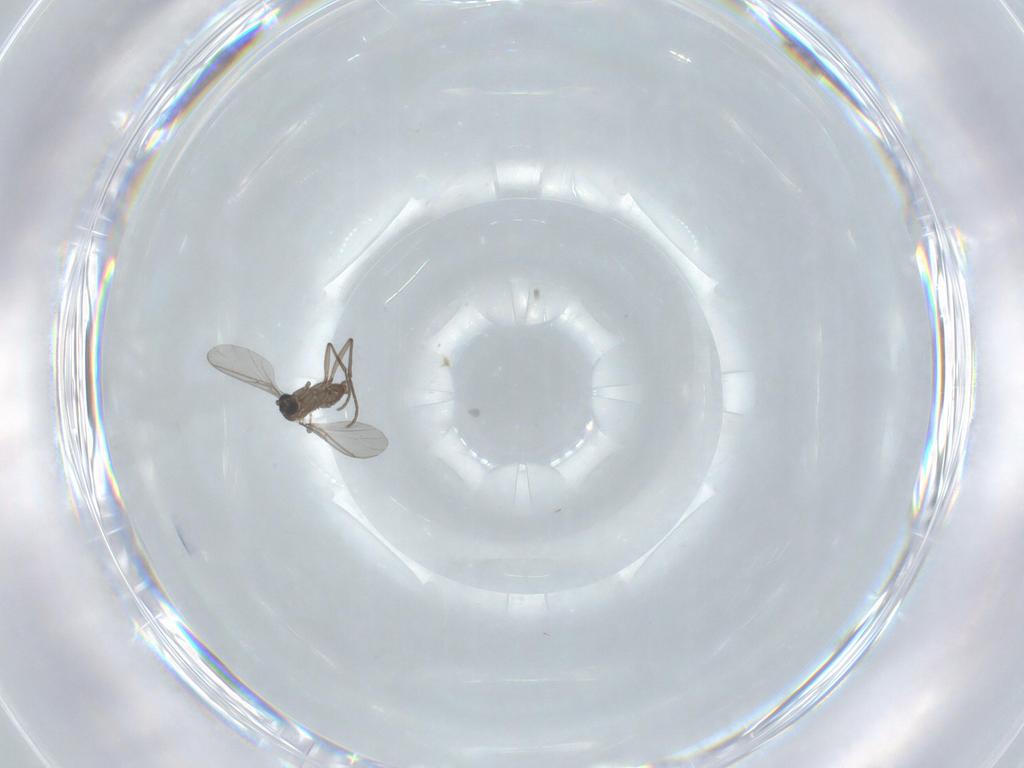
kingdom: Animalia
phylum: Arthropoda
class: Insecta
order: Diptera
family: Sciaridae
